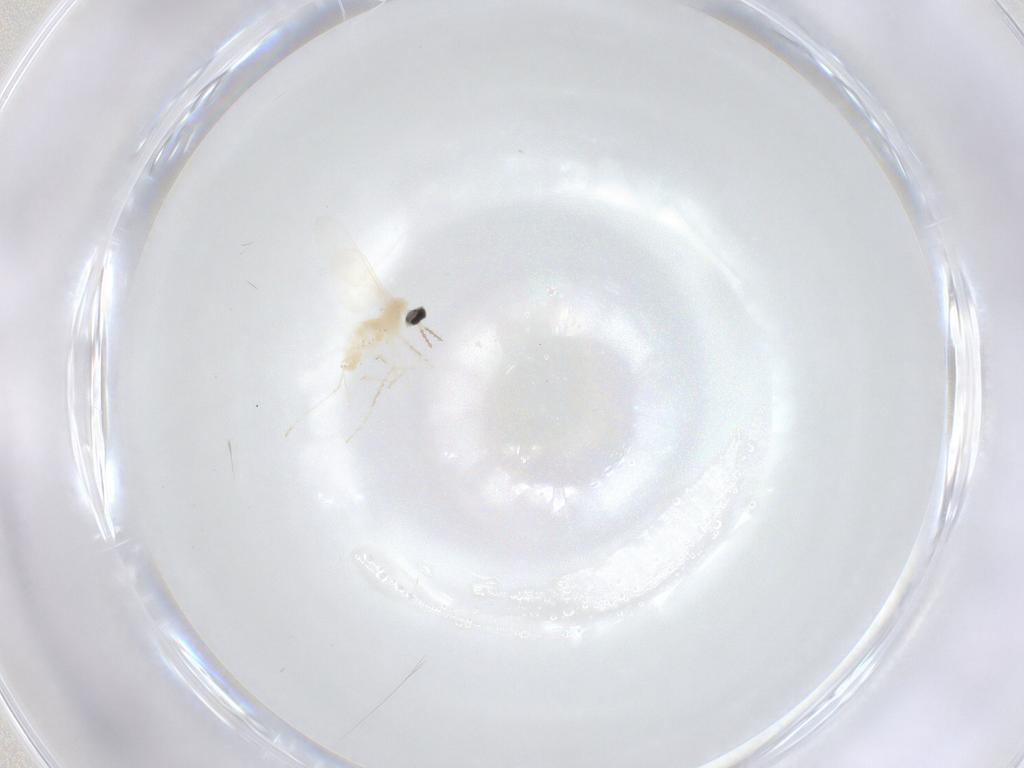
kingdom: Animalia
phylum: Arthropoda
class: Insecta
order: Diptera
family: Cecidomyiidae
